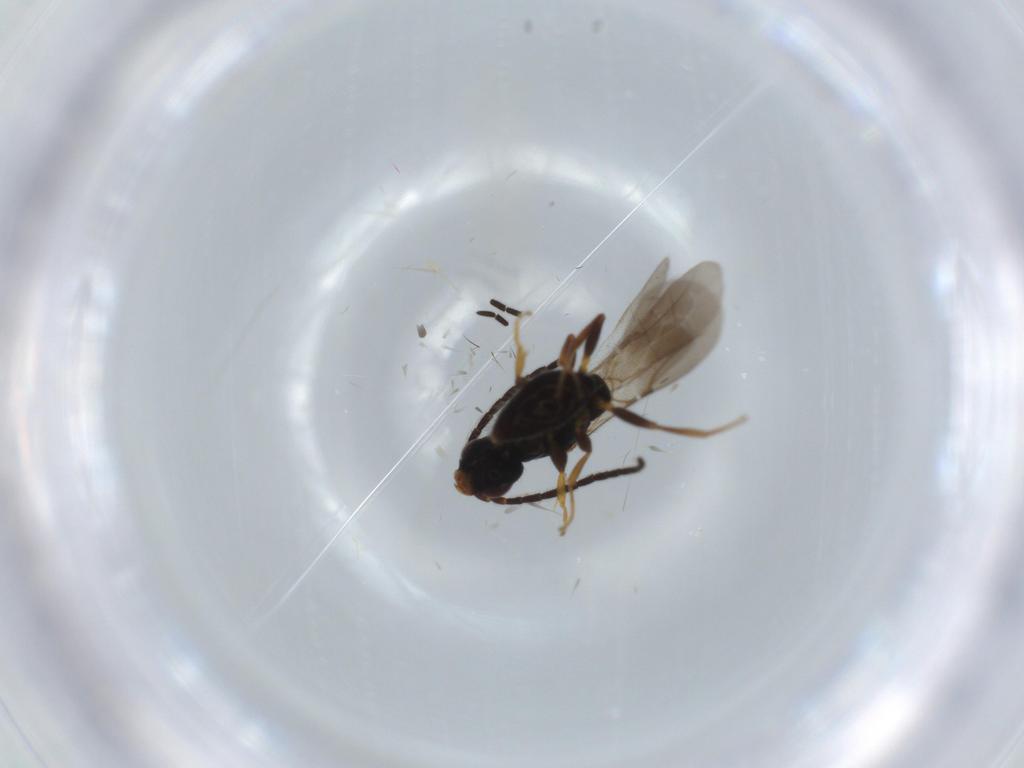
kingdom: Animalia
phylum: Arthropoda
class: Insecta
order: Hymenoptera
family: Bethylidae
